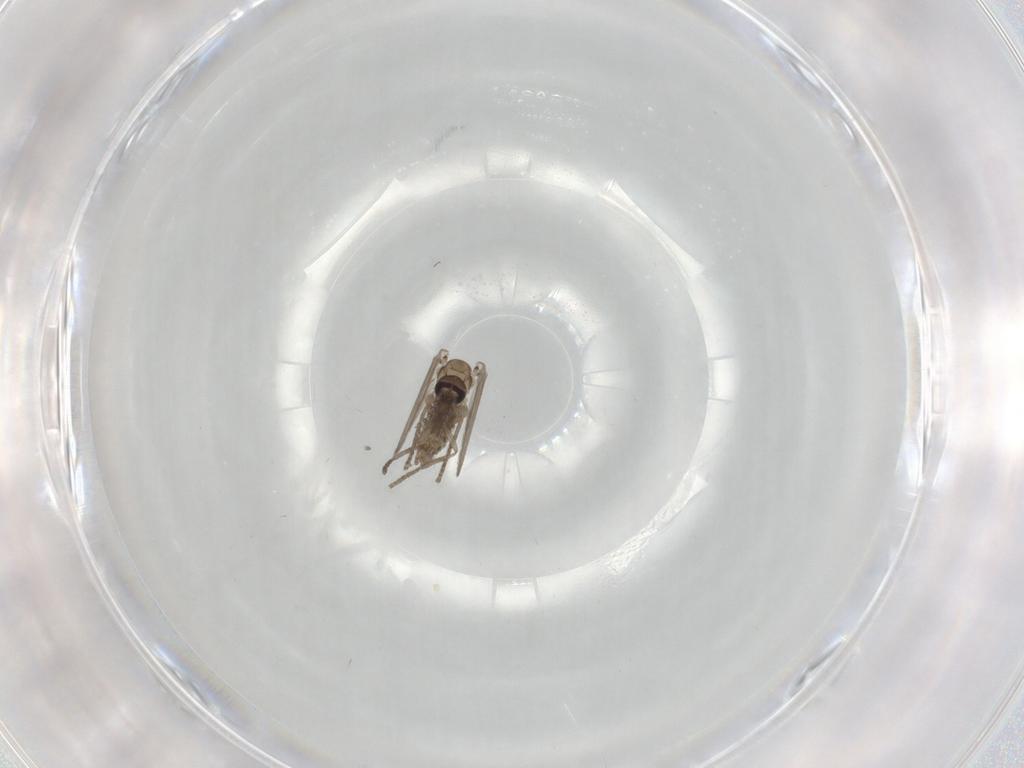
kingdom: Animalia
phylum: Arthropoda
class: Insecta
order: Diptera
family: Psychodidae
